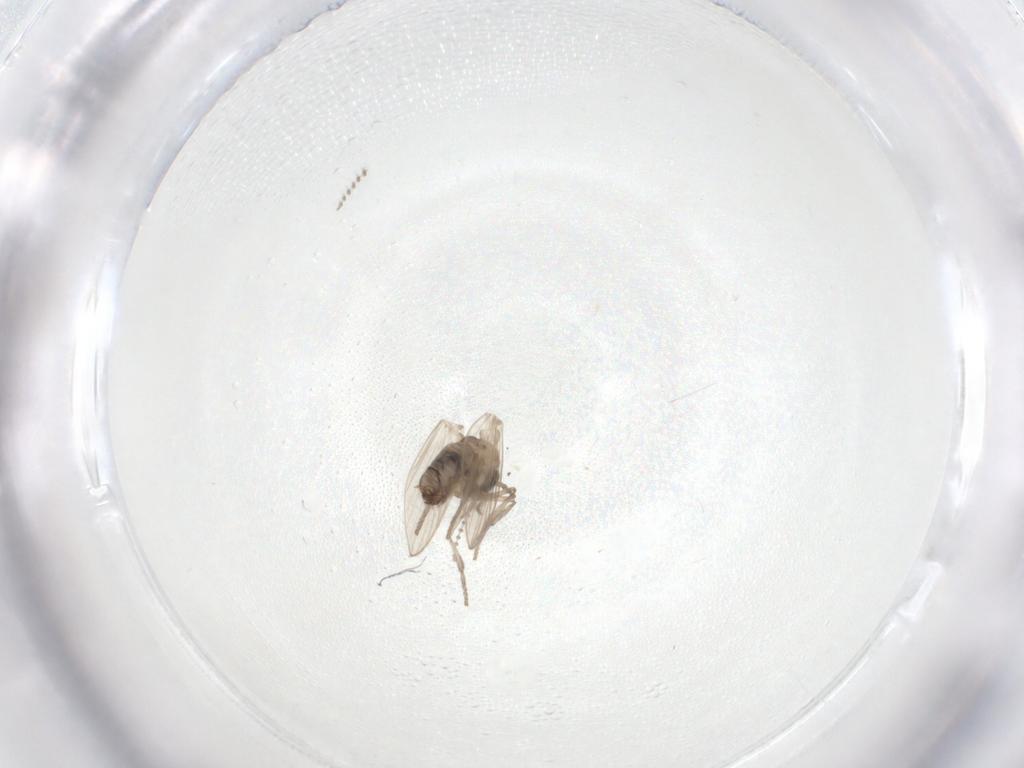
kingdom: Animalia
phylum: Arthropoda
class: Insecta
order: Diptera
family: Psychodidae
